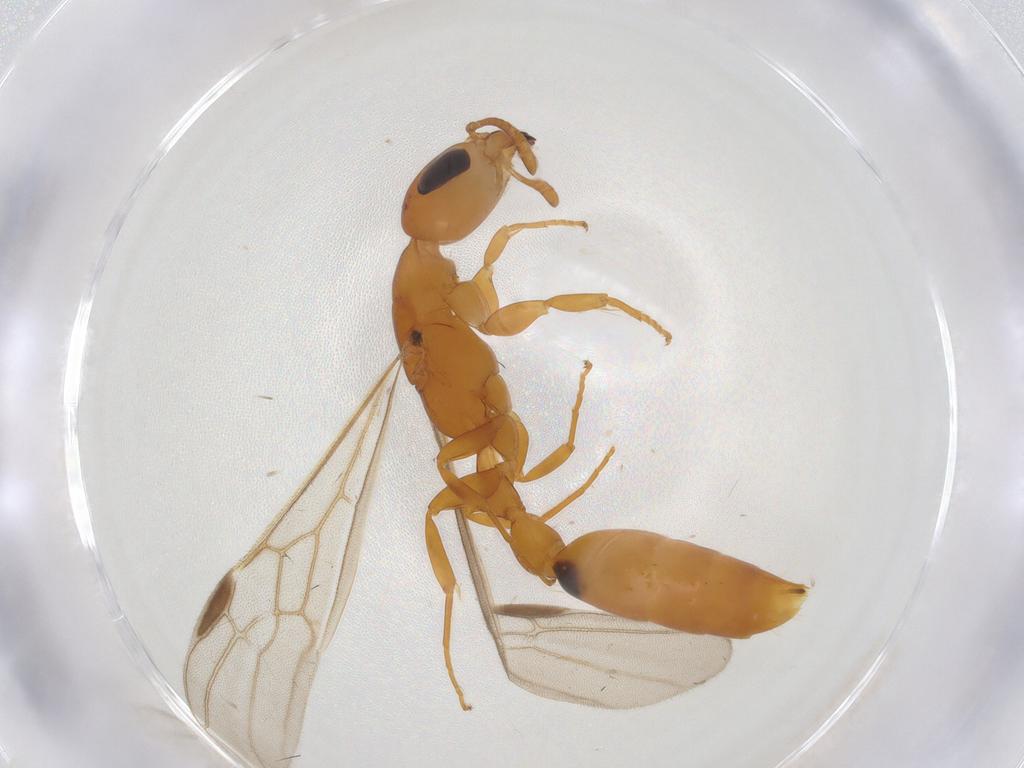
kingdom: Animalia
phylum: Arthropoda
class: Insecta
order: Hymenoptera
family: Formicidae
